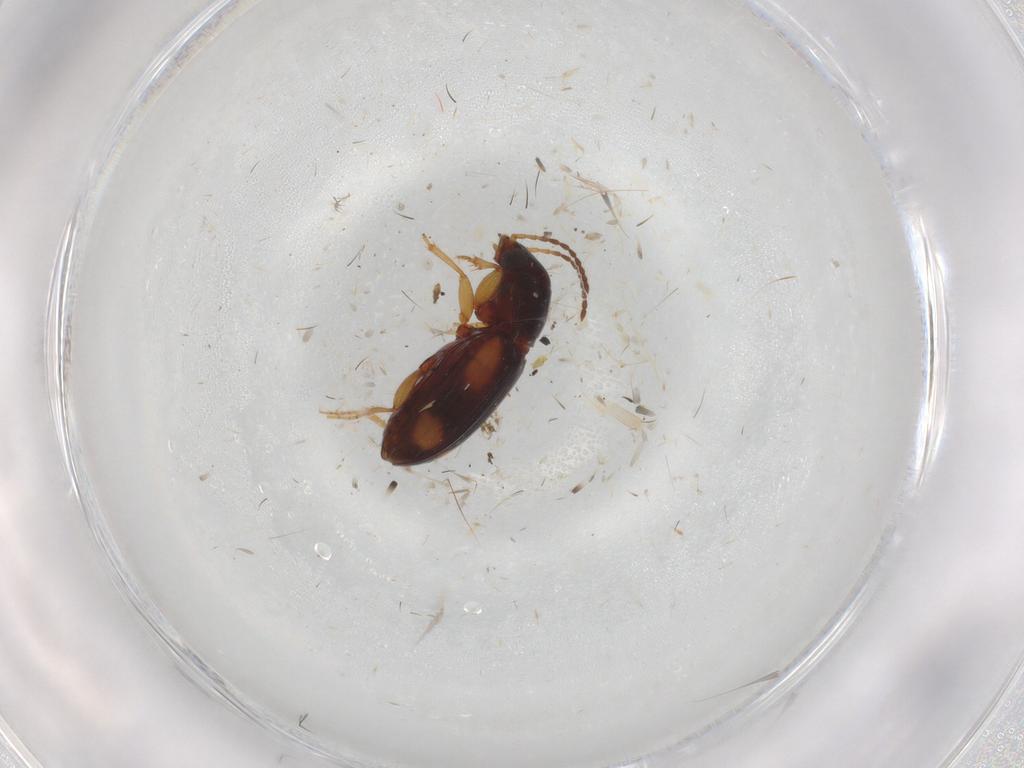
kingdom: Animalia
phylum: Arthropoda
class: Insecta
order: Coleoptera
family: Carabidae
